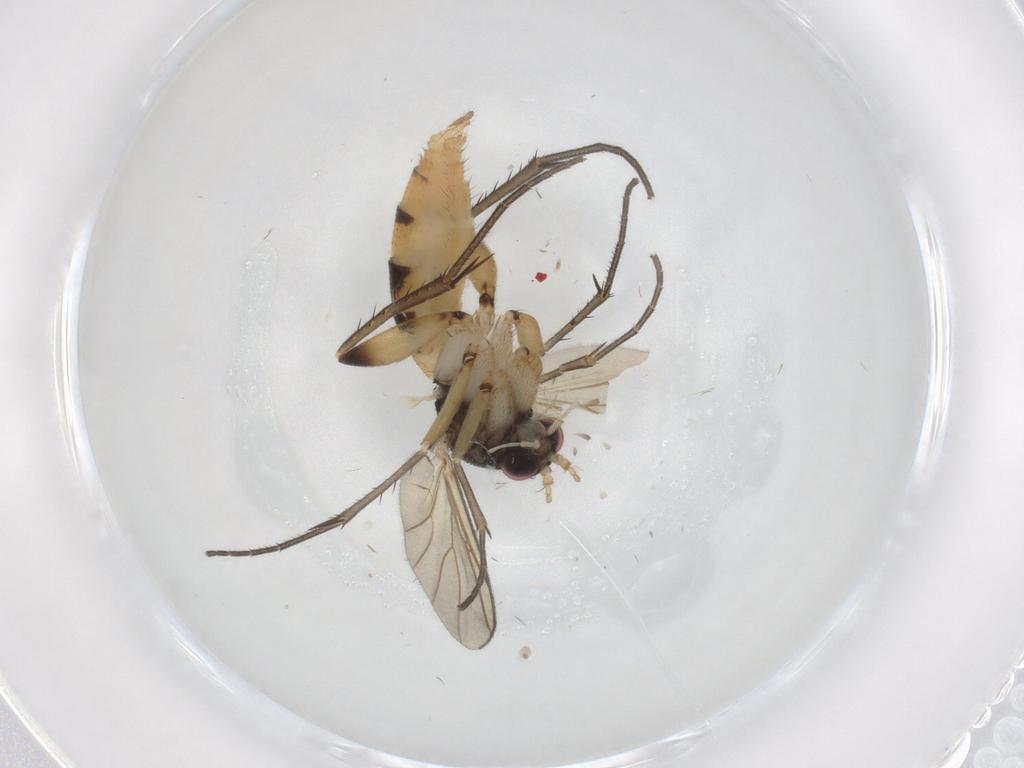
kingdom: Animalia
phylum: Arthropoda
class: Insecta
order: Diptera
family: Mycetophilidae
